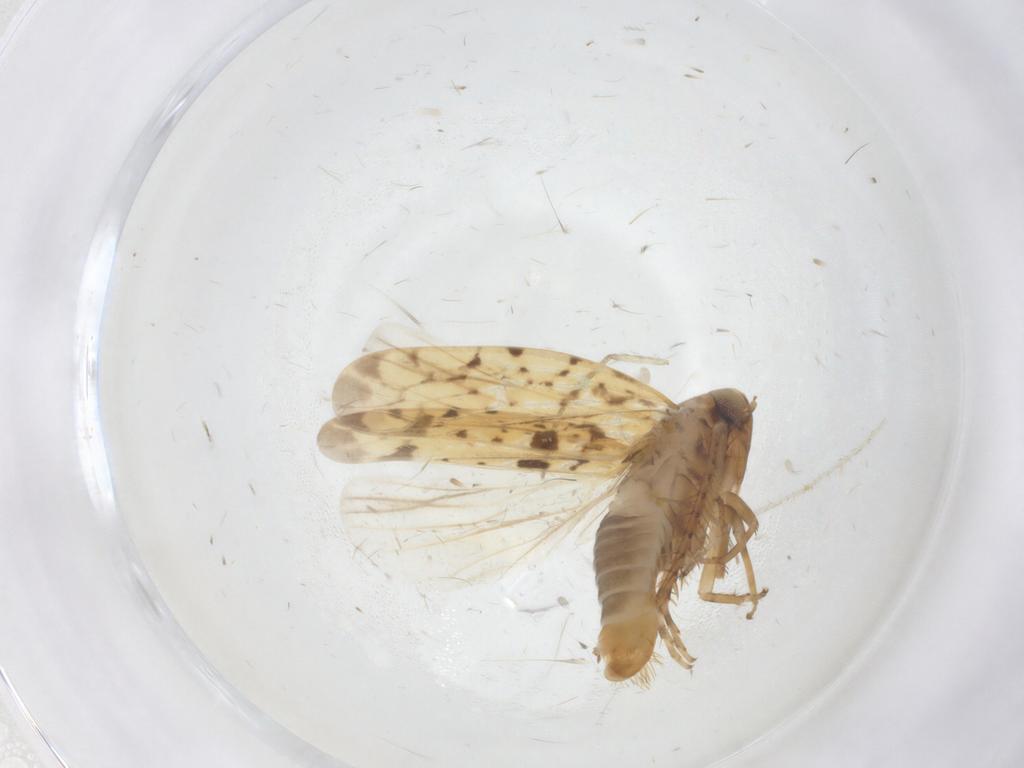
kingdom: Animalia
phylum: Arthropoda
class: Insecta
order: Hemiptera
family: Cicadellidae
